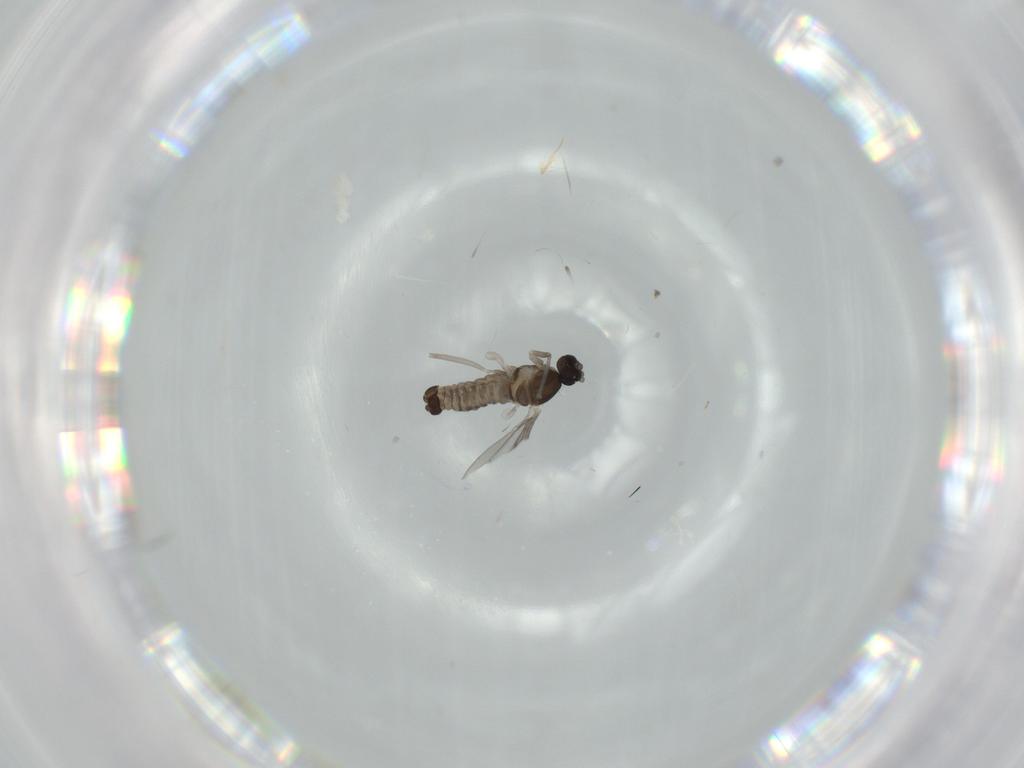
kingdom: Animalia
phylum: Arthropoda
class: Insecta
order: Diptera
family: Cecidomyiidae
